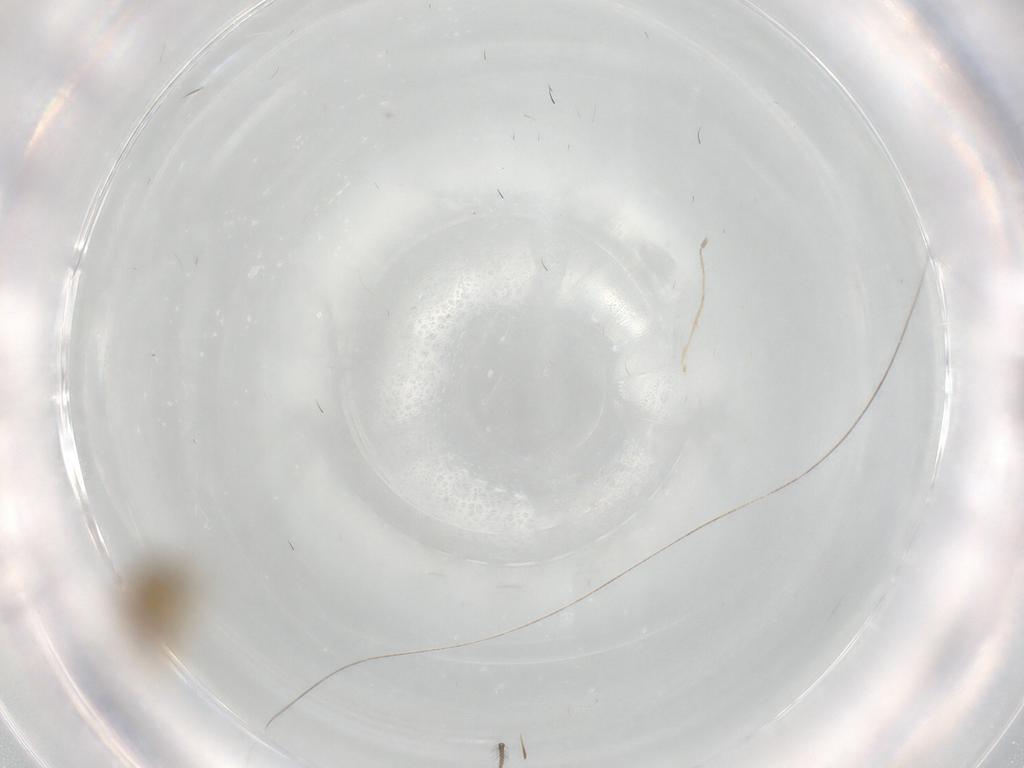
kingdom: Animalia
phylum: Arthropoda
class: Insecta
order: Diptera
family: Ceratopogonidae
